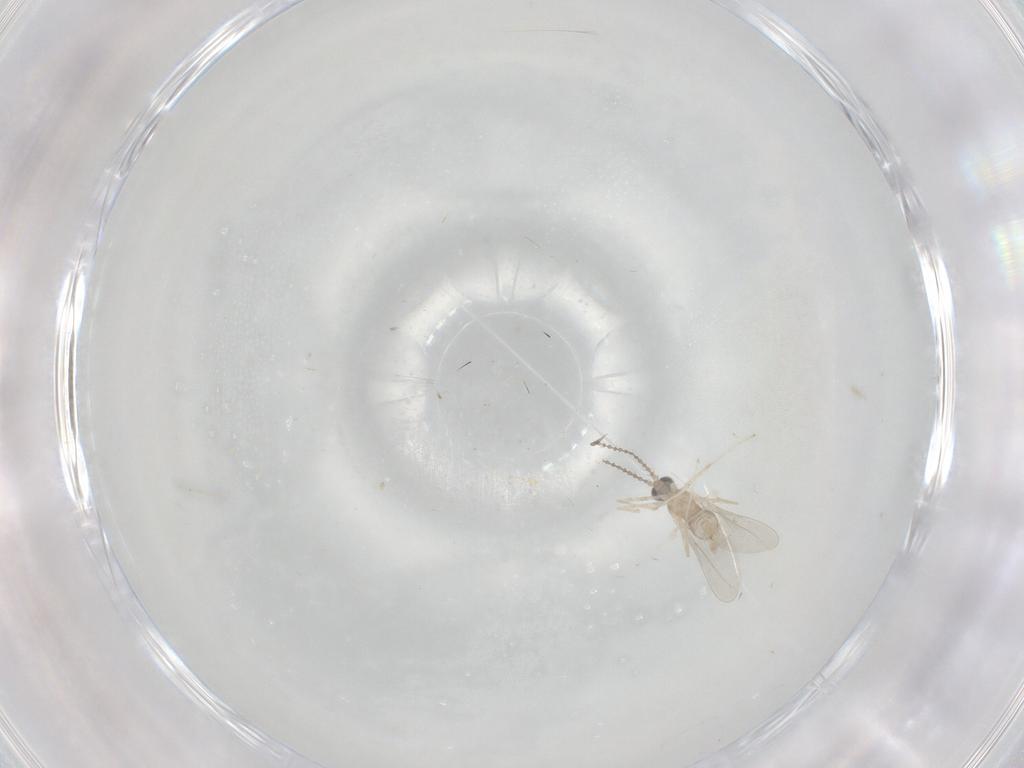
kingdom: Animalia
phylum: Arthropoda
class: Insecta
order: Diptera
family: Cecidomyiidae
